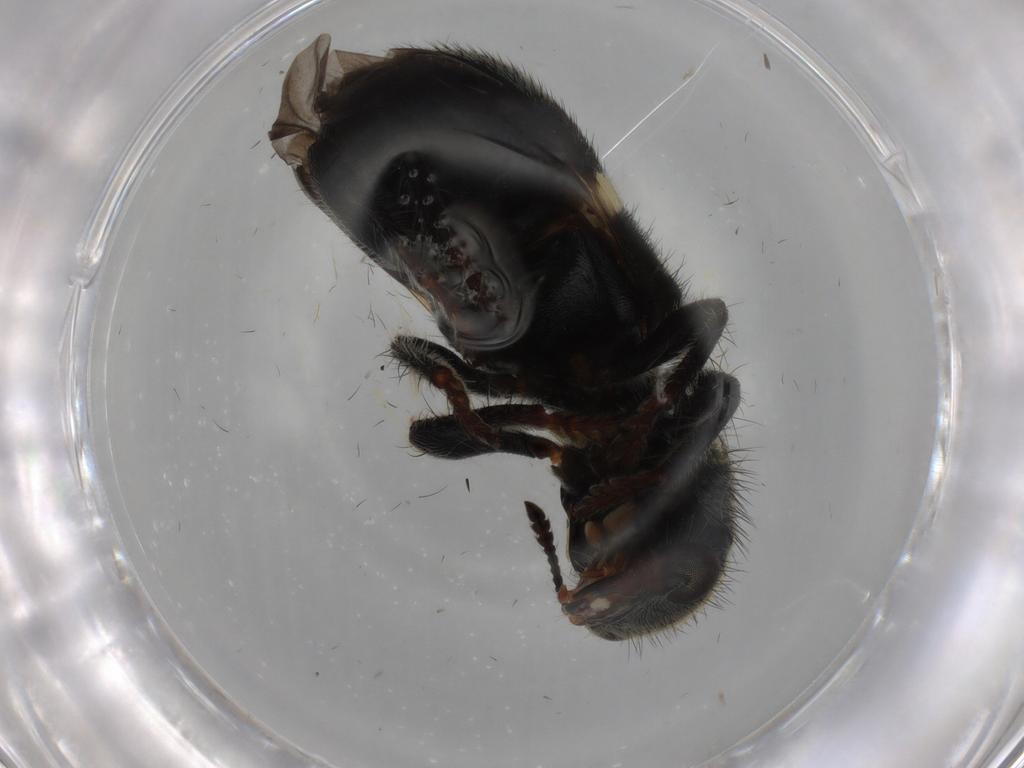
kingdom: Animalia
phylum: Arthropoda
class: Insecta
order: Coleoptera
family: Cleridae
